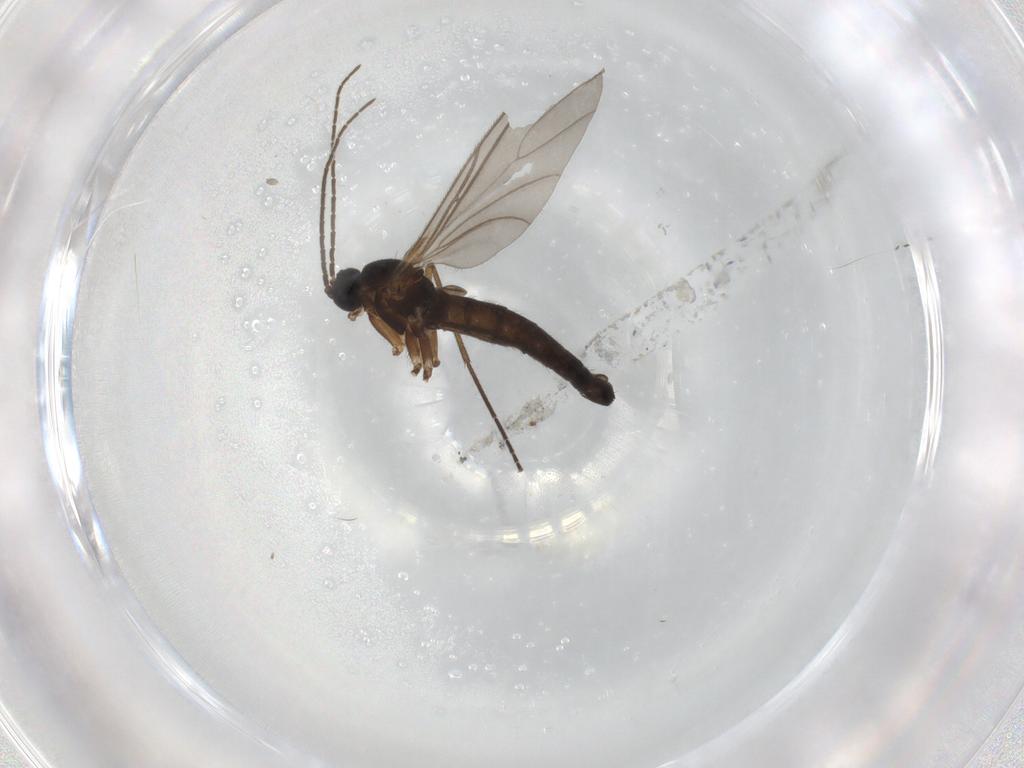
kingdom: Animalia
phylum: Arthropoda
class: Insecta
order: Diptera
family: Sciaridae
